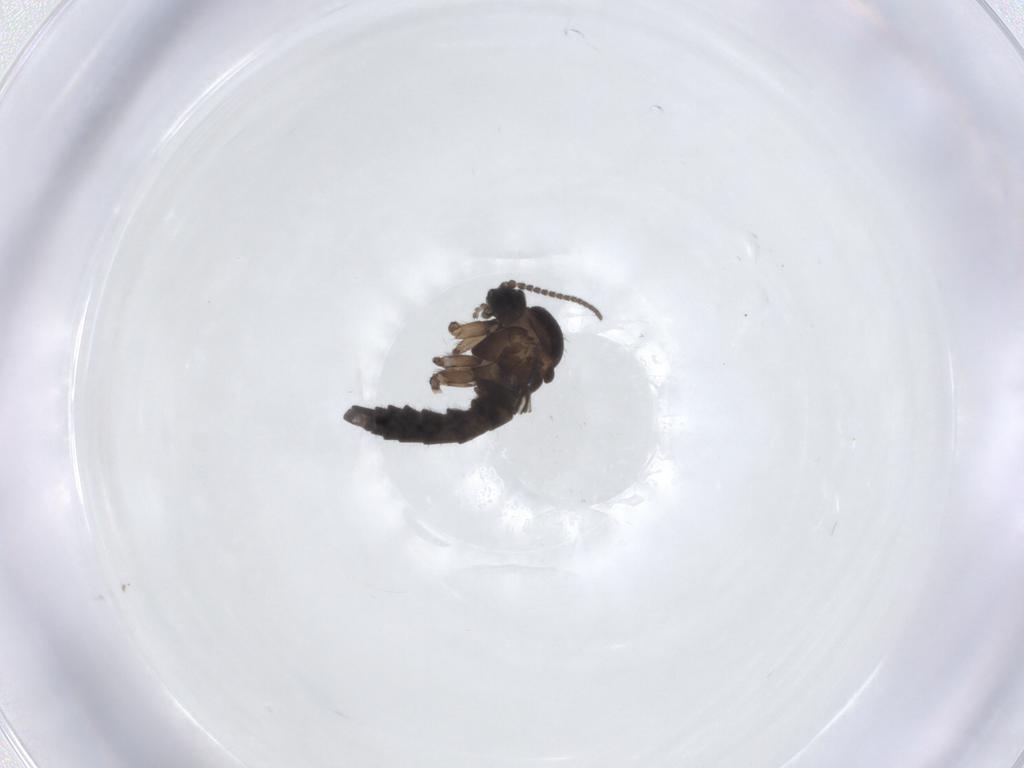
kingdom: Animalia
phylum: Arthropoda
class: Insecta
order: Diptera
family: Sciaridae
